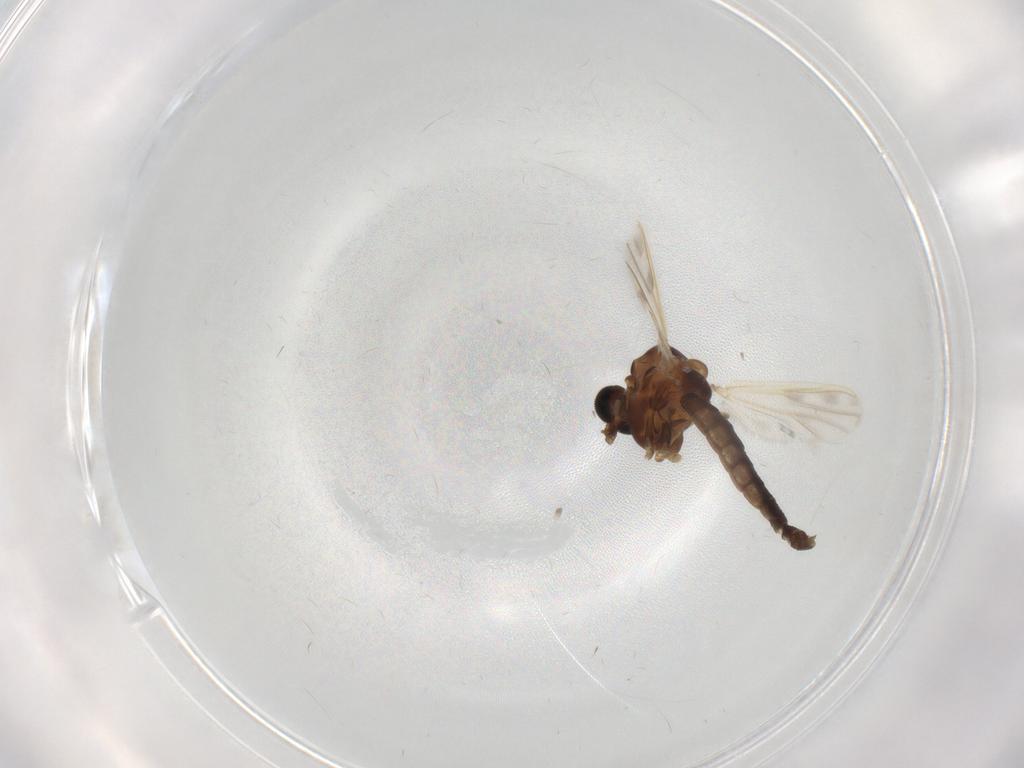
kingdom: Animalia
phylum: Arthropoda
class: Insecta
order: Diptera
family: Chironomidae
